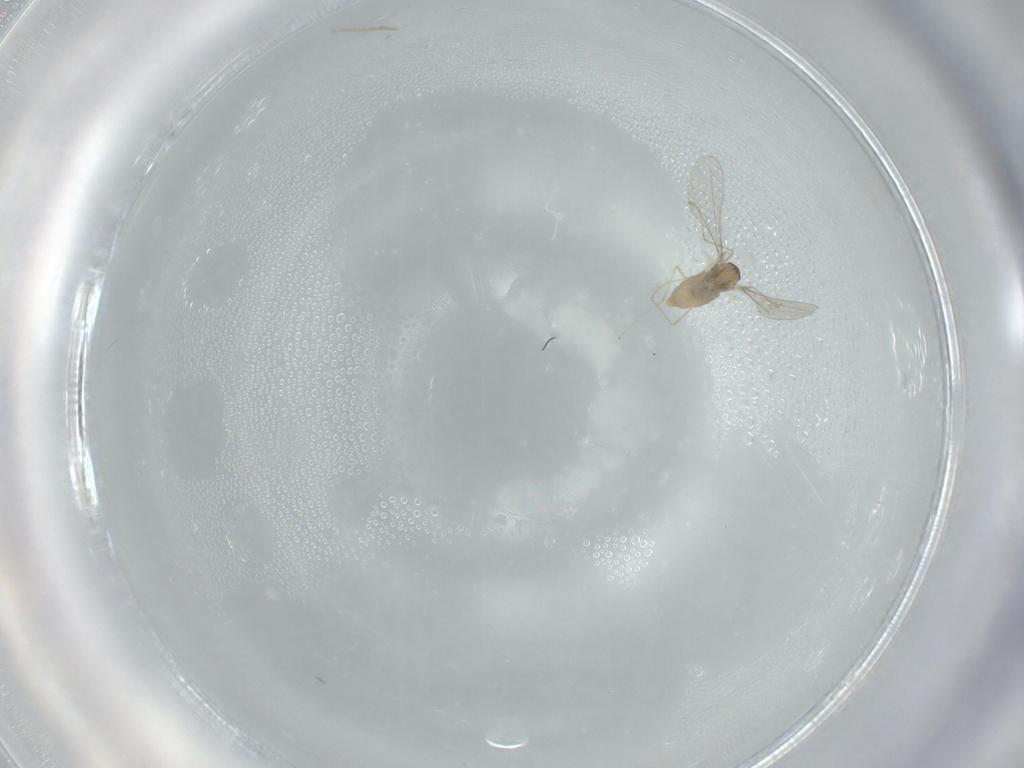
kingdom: Animalia
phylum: Arthropoda
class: Insecta
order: Diptera
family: Cecidomyiidae
